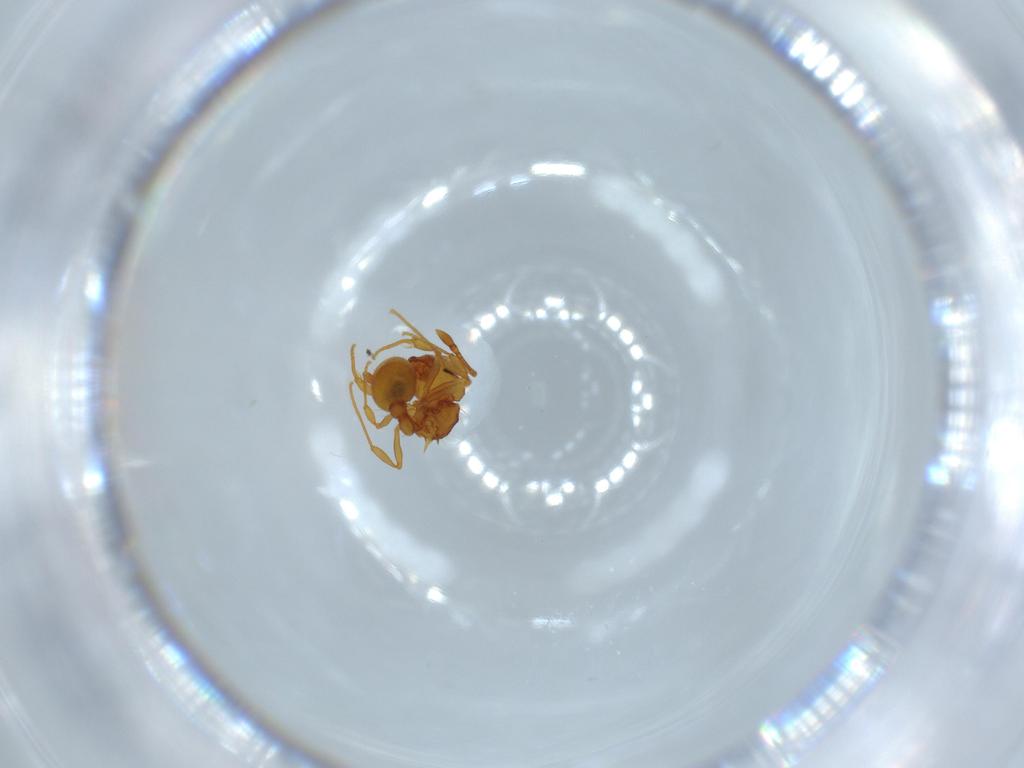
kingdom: Animalia
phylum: Arthropoda
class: Insecta
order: Hymenoptera
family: Formicidae
